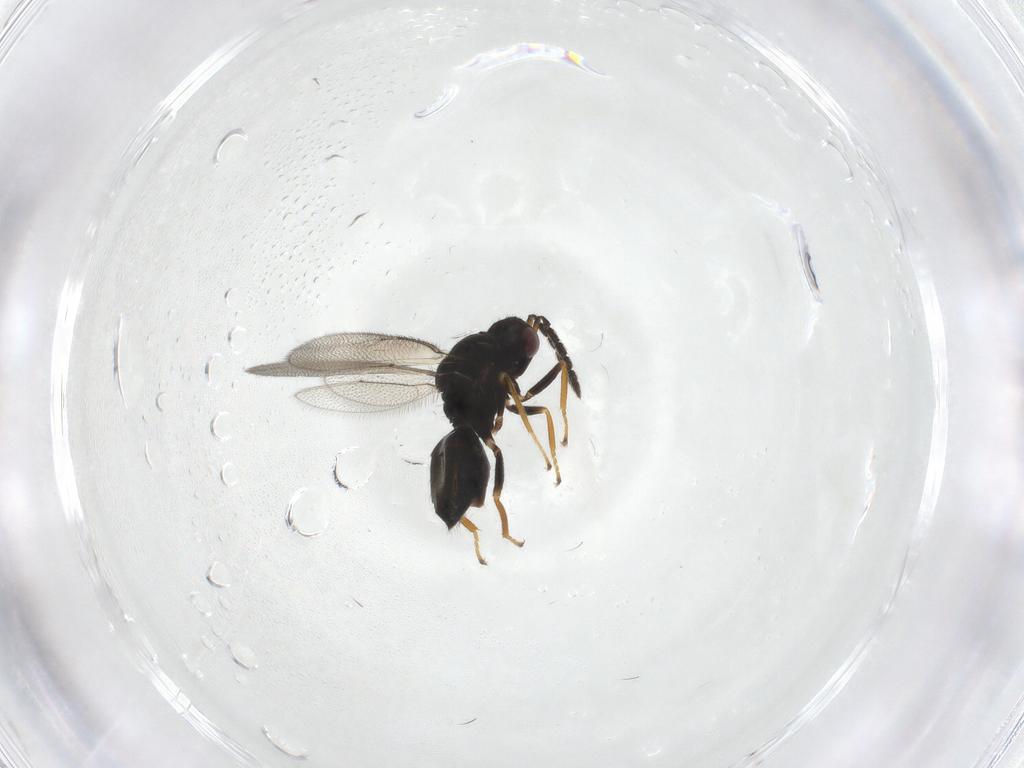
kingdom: Animalia
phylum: Arthropoda
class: Insecta
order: Hymenoptera
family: Eulophidae
